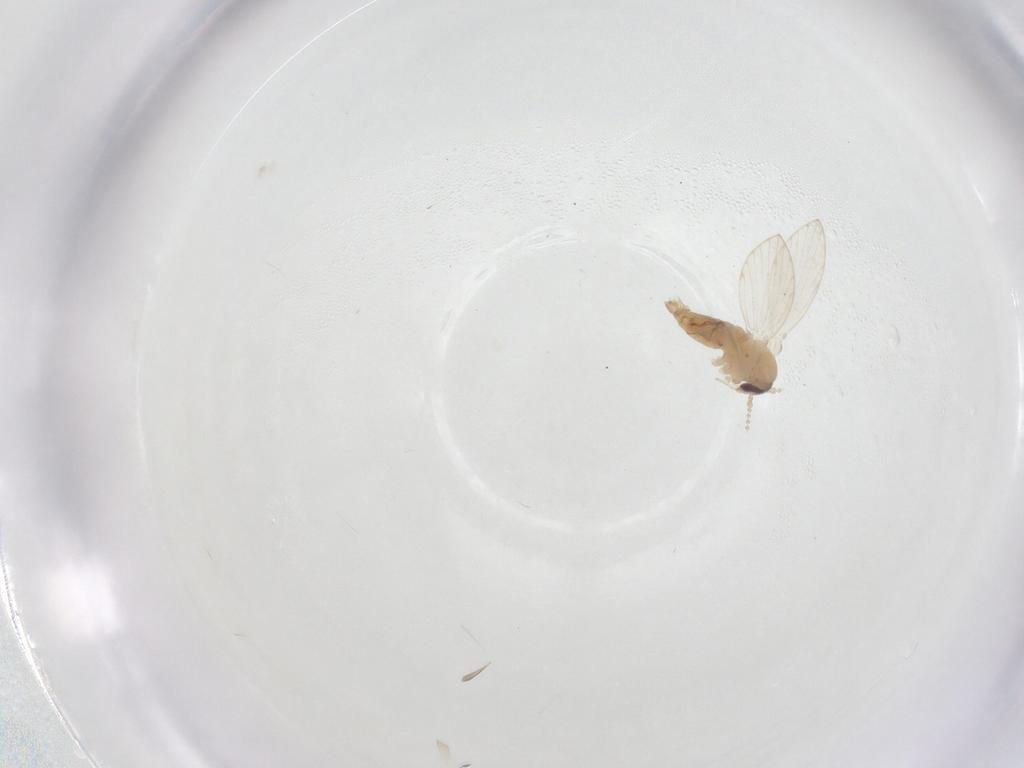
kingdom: Animalia
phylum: Arthropoda
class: Insecta
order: Diptera
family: Psychodidae
